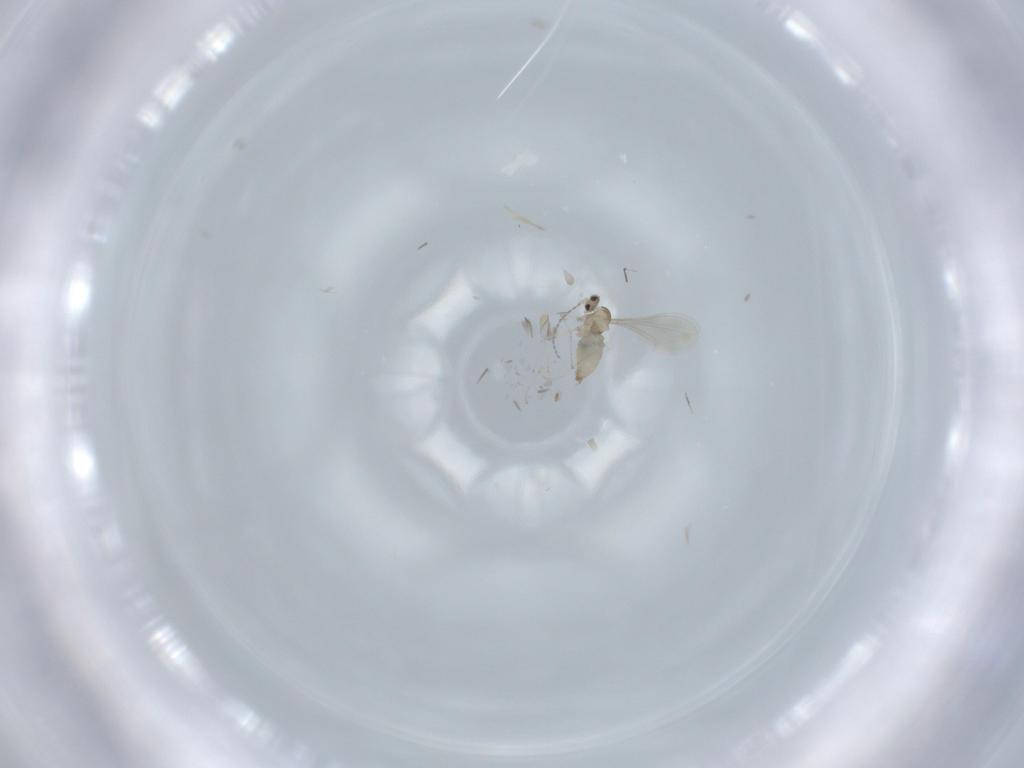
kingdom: Animalia
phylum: Arthropoda
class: Insecta
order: Diptera
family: Cecidomyiidae
